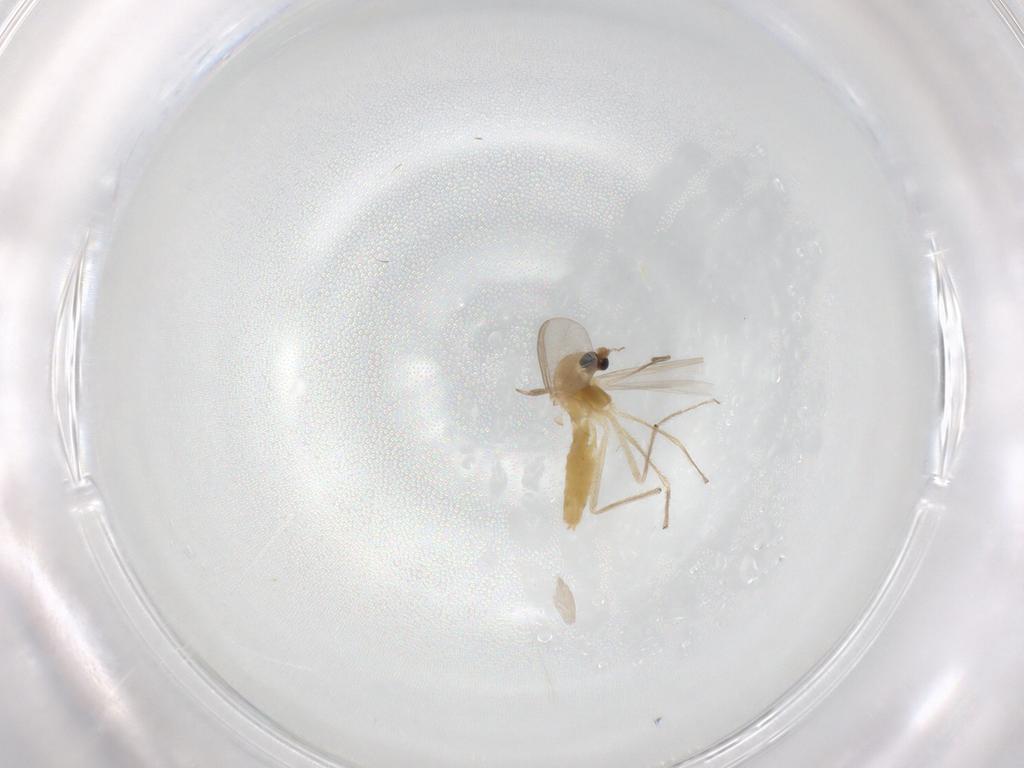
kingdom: Animalia
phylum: Arthropoda
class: Insecta
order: Diptera
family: Chironomidae
